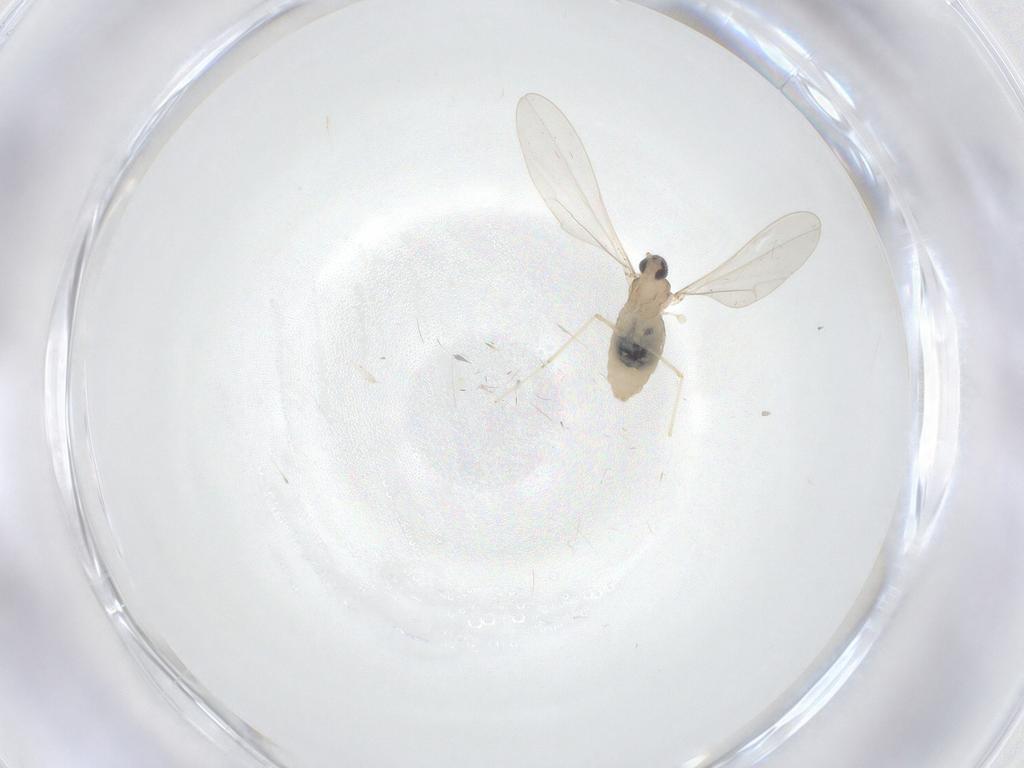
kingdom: Animalia
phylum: Arthropoda
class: Insecta
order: Diptera
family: Cecidomyiidae
